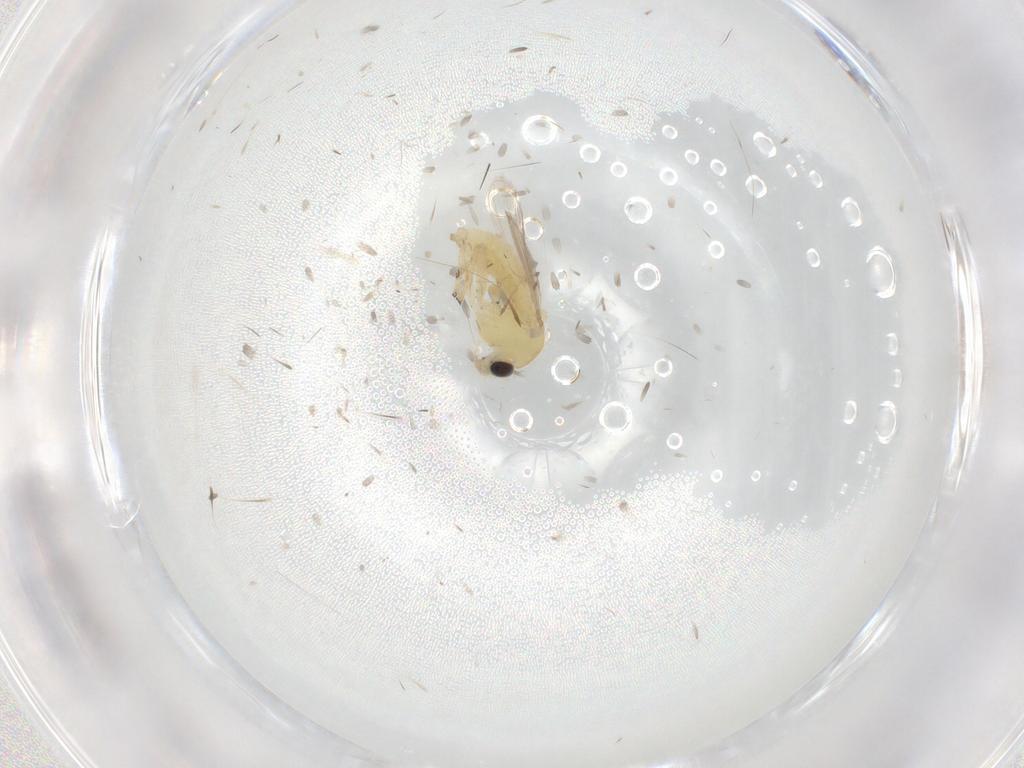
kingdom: Animalia
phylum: Arthropoda
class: Insecta
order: Diptera
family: Chironomidae
